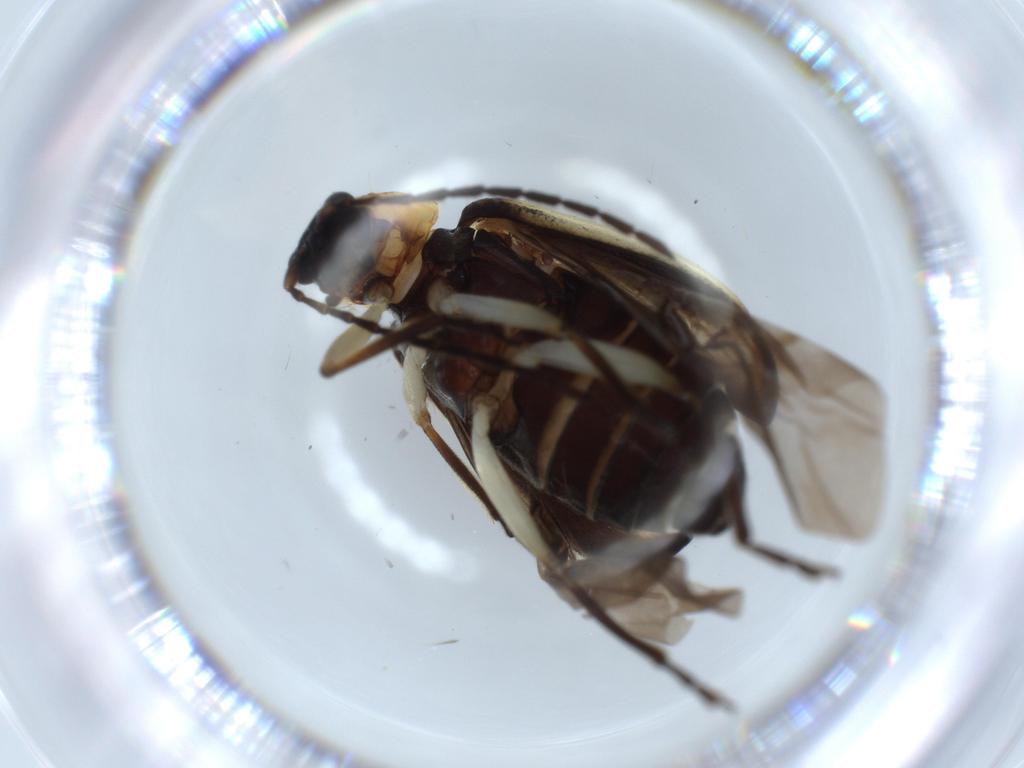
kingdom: Animalia
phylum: Arthropoda
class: Insecta
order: Coleoptera
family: Chrysomelidae
